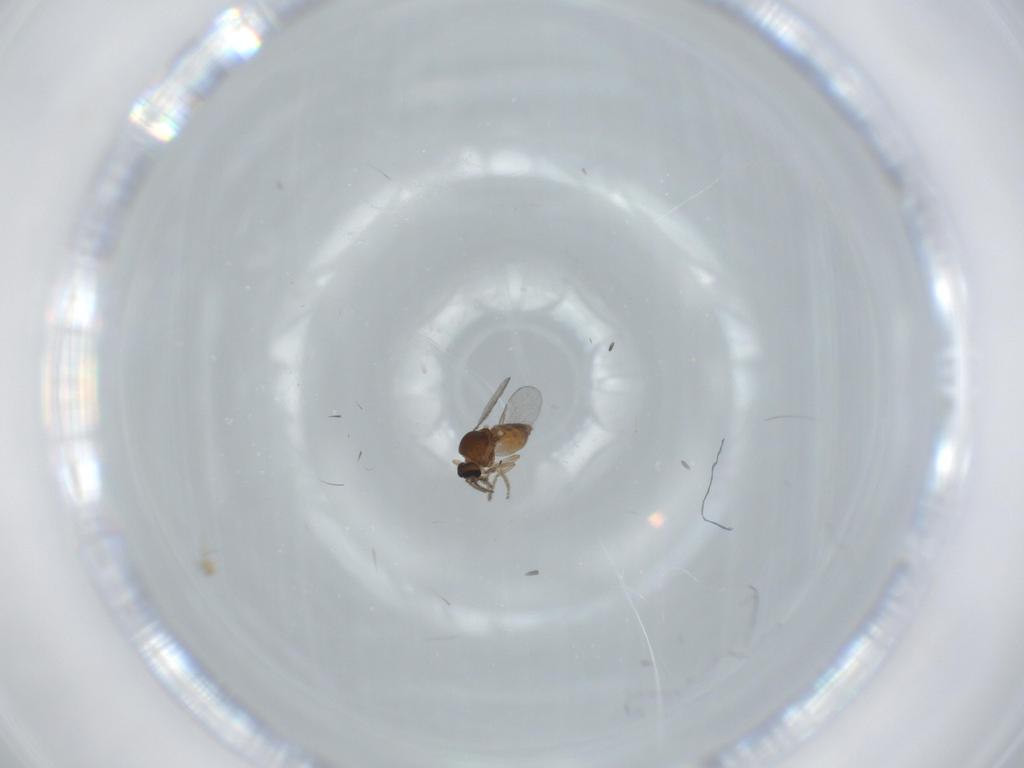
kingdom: Animalia
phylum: Arthropoda
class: Insecta
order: Diptera
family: Ceratopogonidae
